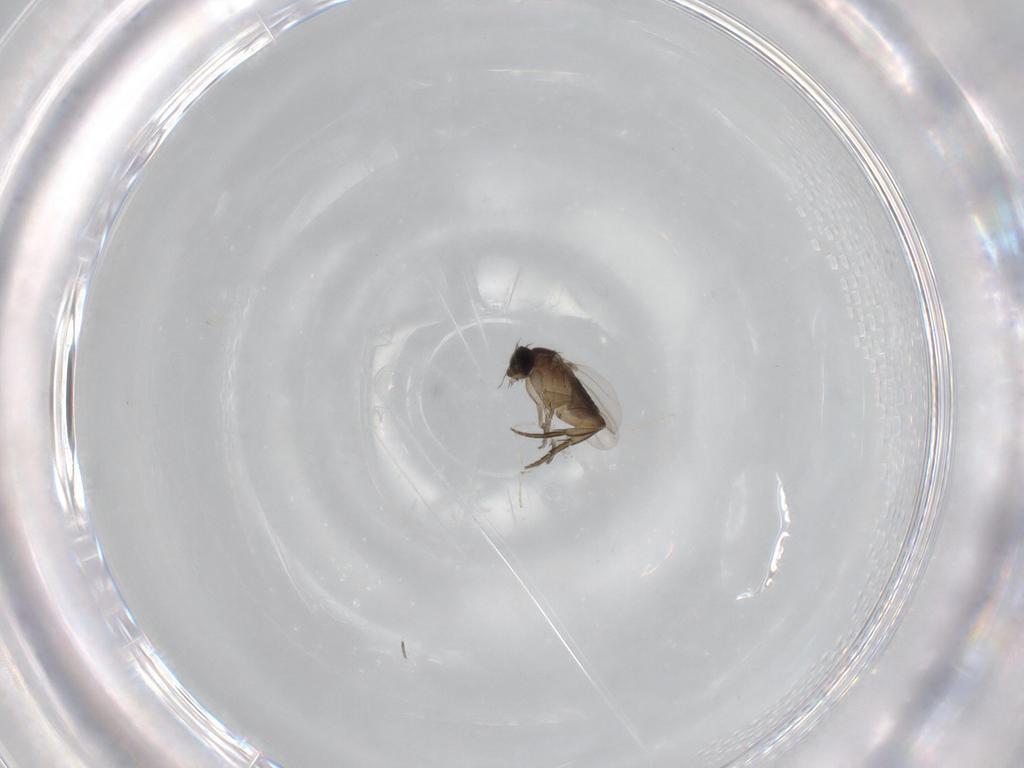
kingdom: Animalia
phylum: Arthropoda
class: Insecta
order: Diptera
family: Phoridae
